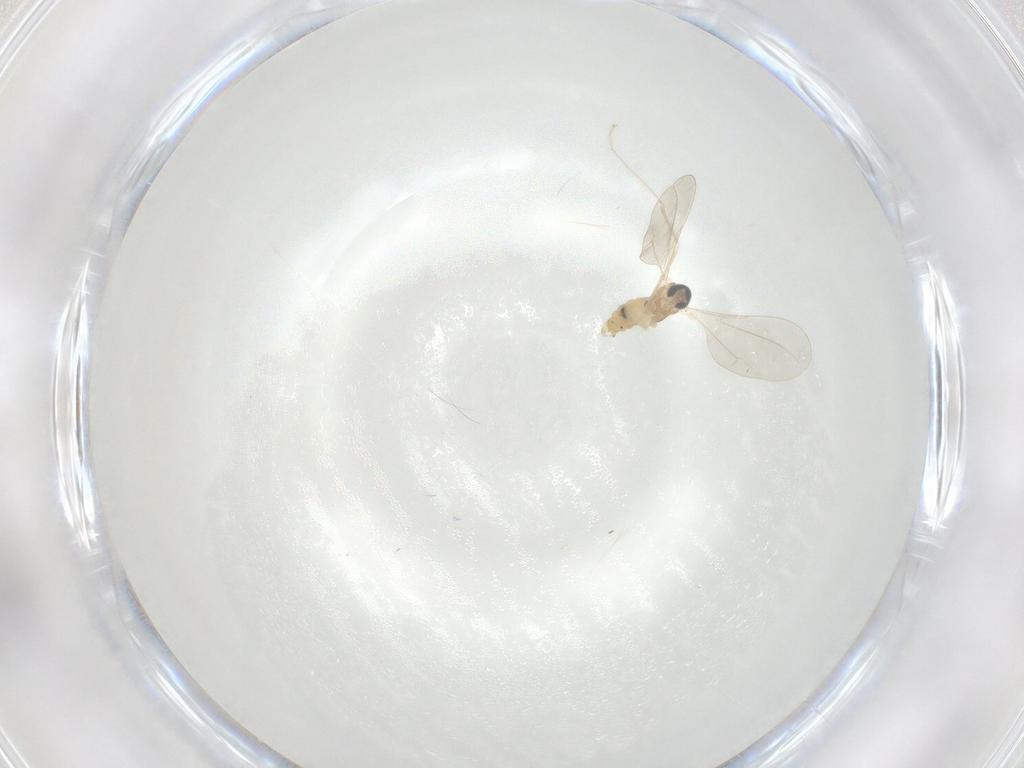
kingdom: Animalia
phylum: Arthropoda
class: Insecta
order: Diptera
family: Cecidomyiidae
